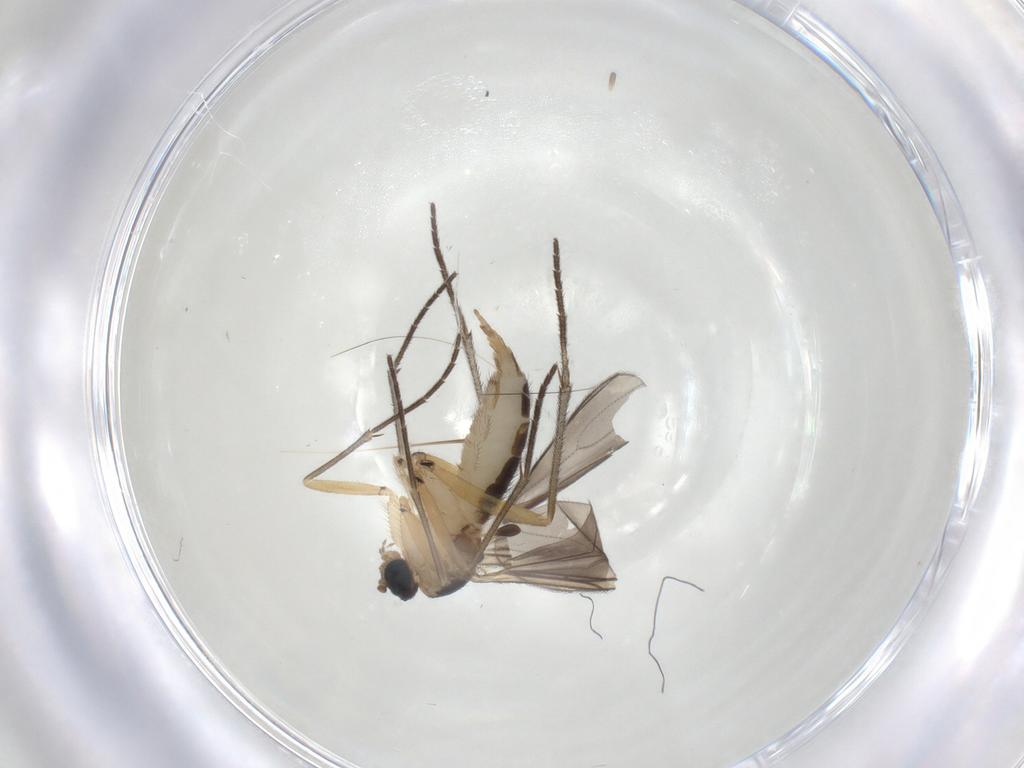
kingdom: Animalia
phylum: Arthropoda
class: Insecta
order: Diptera
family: Sciaridae
